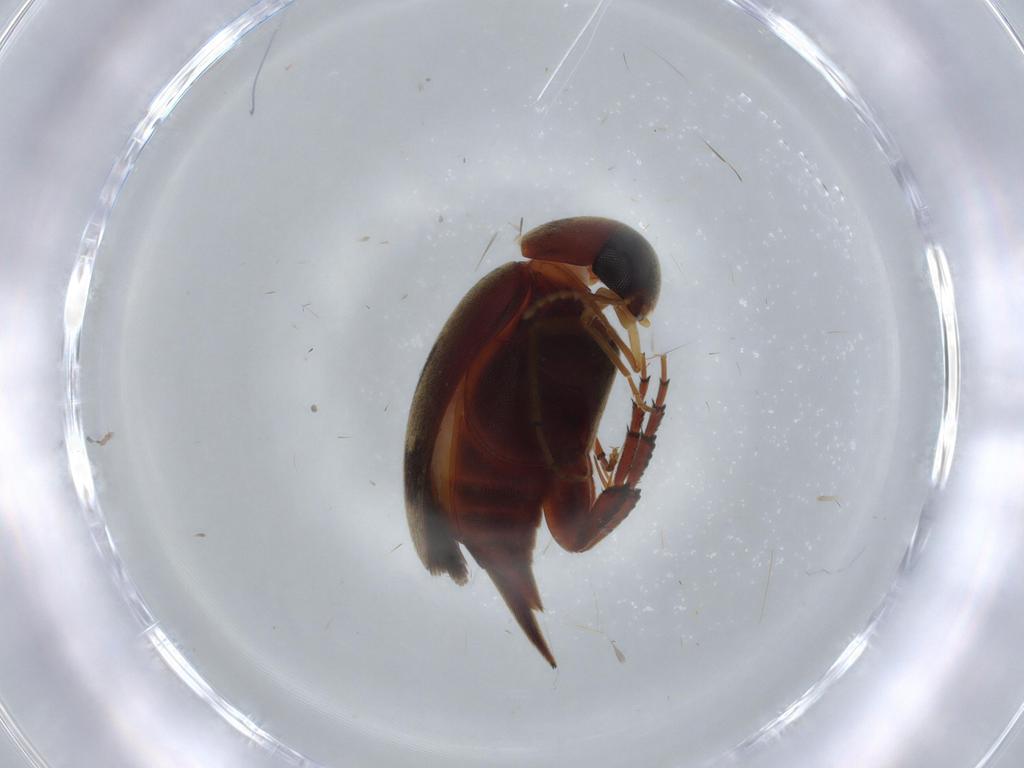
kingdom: Animalia
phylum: Arthropoda
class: Insecta
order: Coleoptera
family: Mordellidae
